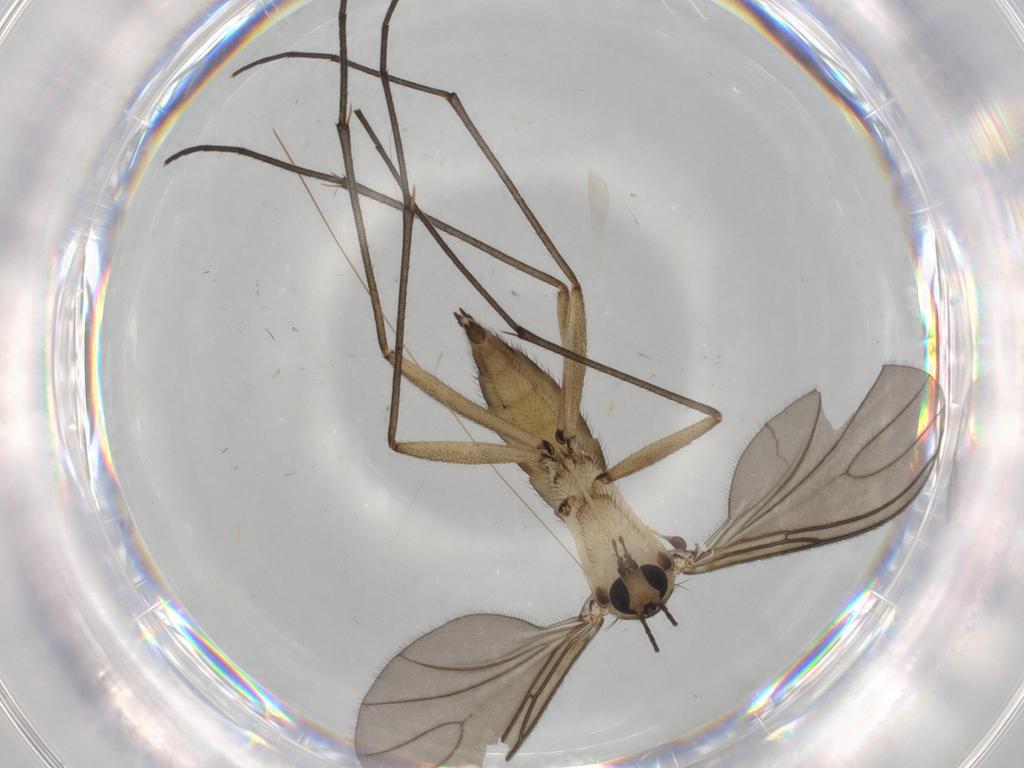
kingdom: Animalia
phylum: Arthropoda
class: Insecta
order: Diptera
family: Sciaridae
